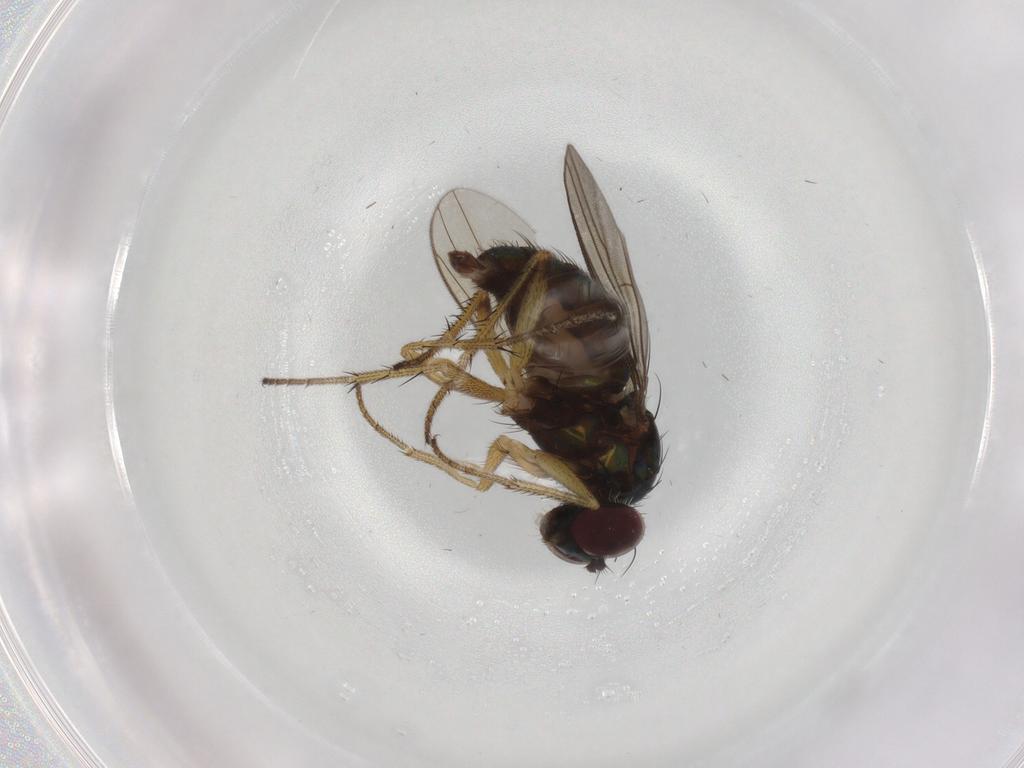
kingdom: Animalia
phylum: Arthropoda
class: Insecta
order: Diptera
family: Dolichopodidae
